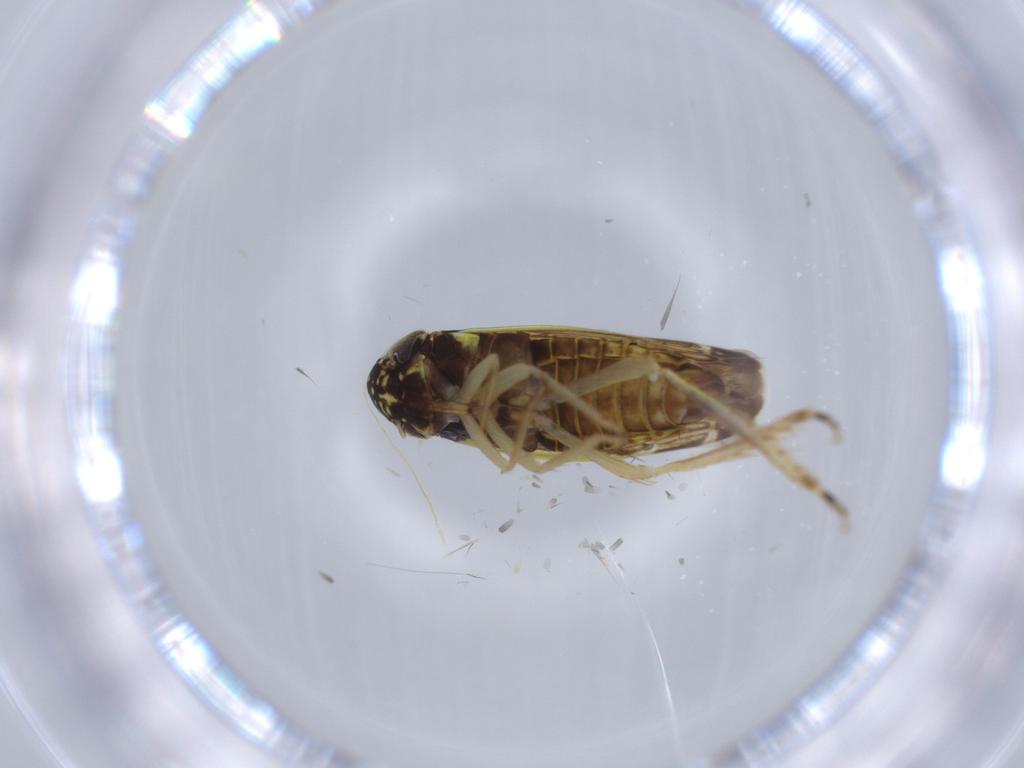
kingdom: Animalia
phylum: Arthropoda
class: Insecta
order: Hemiptera
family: Cicadellidae
